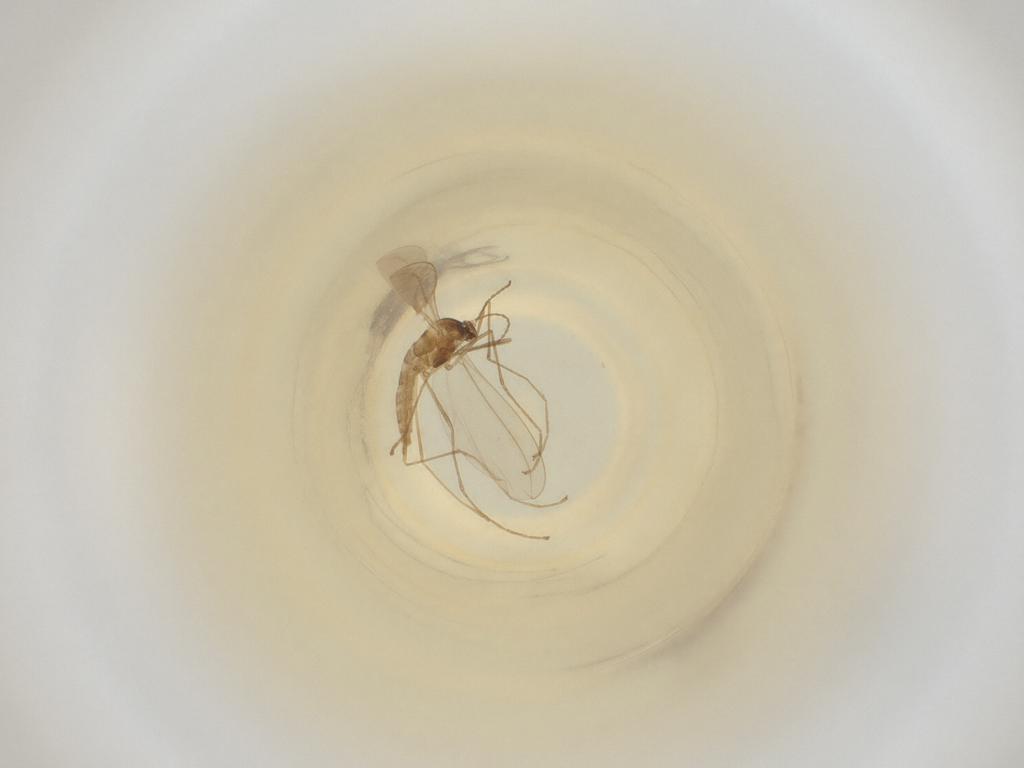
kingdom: Animalia
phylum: Arthropoda
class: Insecta
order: Diptera
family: Cecidomyiidae
